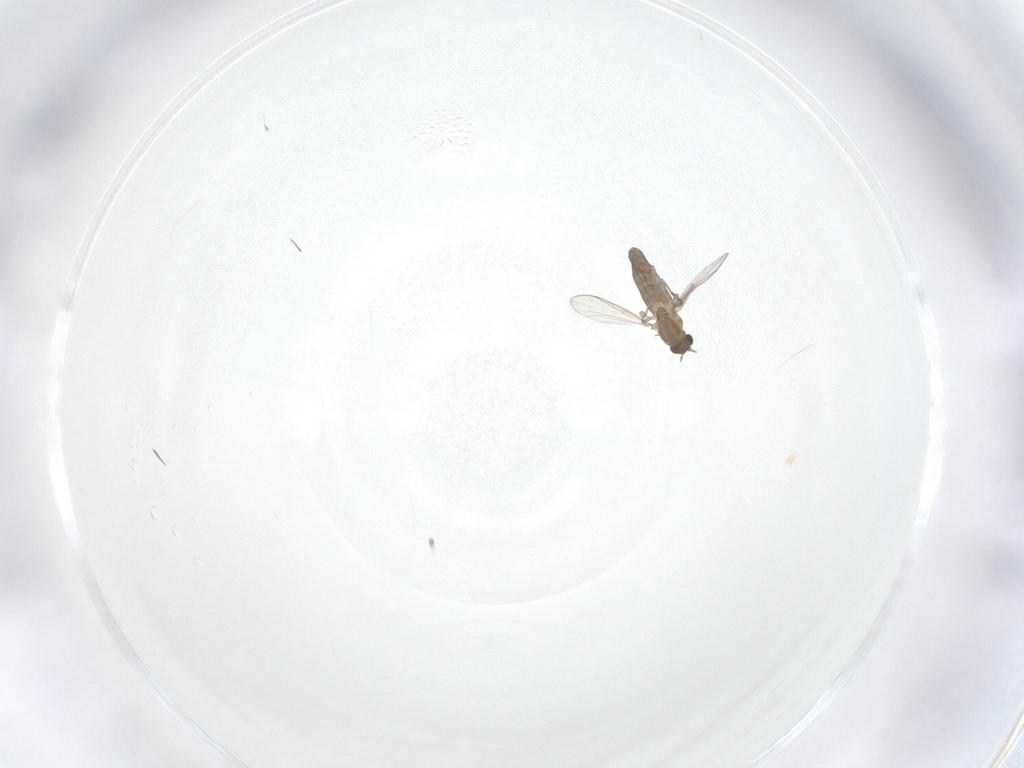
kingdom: Animalia
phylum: Arthropoda
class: Insecta
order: Diptera
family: Chironomidae
